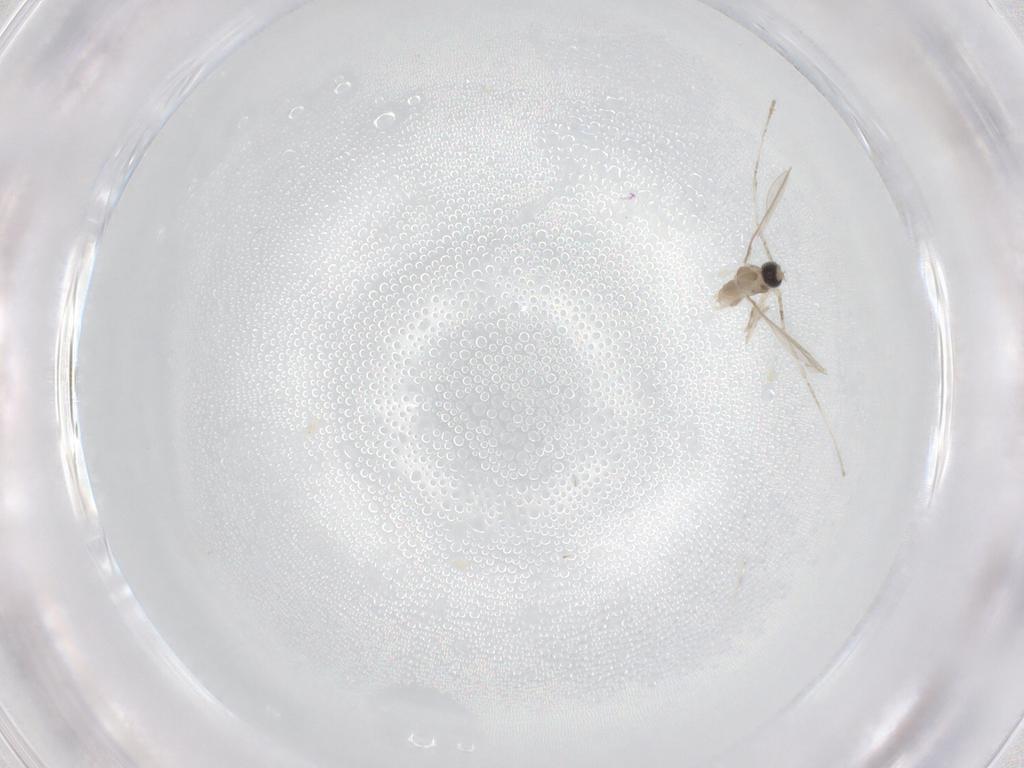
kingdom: Animalia
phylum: Arthropoda
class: Insecta
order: Diptera
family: Cecidomyiidae
